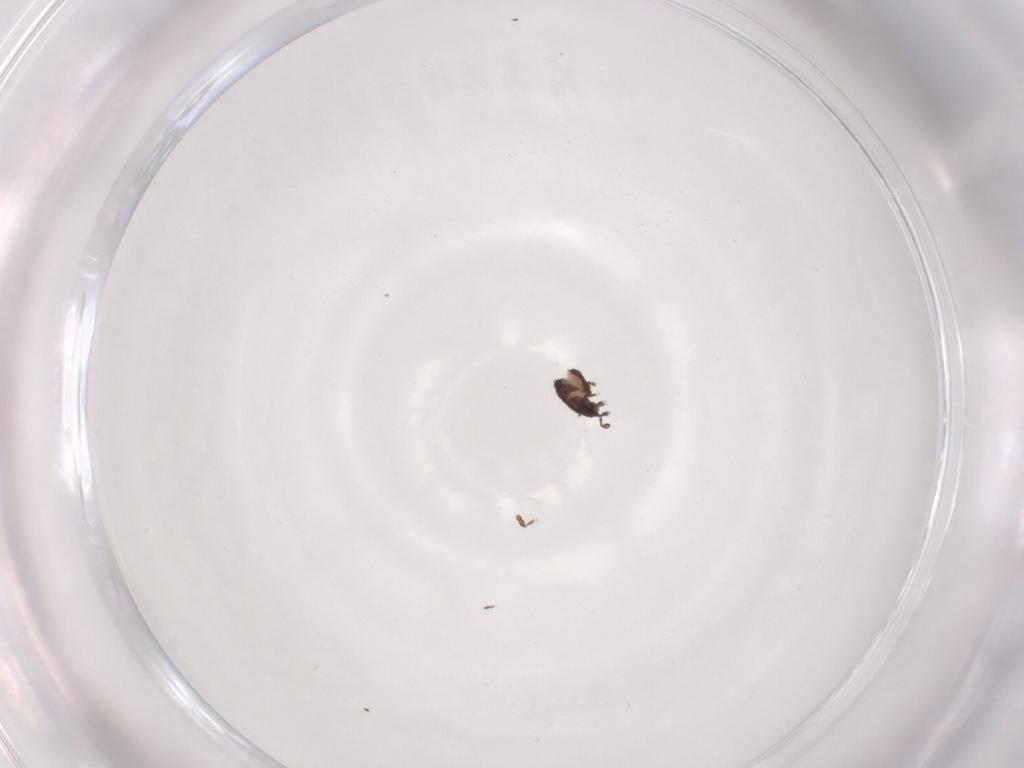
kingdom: Animalia
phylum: Arthropoda
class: Arachnida
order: Sarcoptiformes
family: Cymbaeremaeidae
